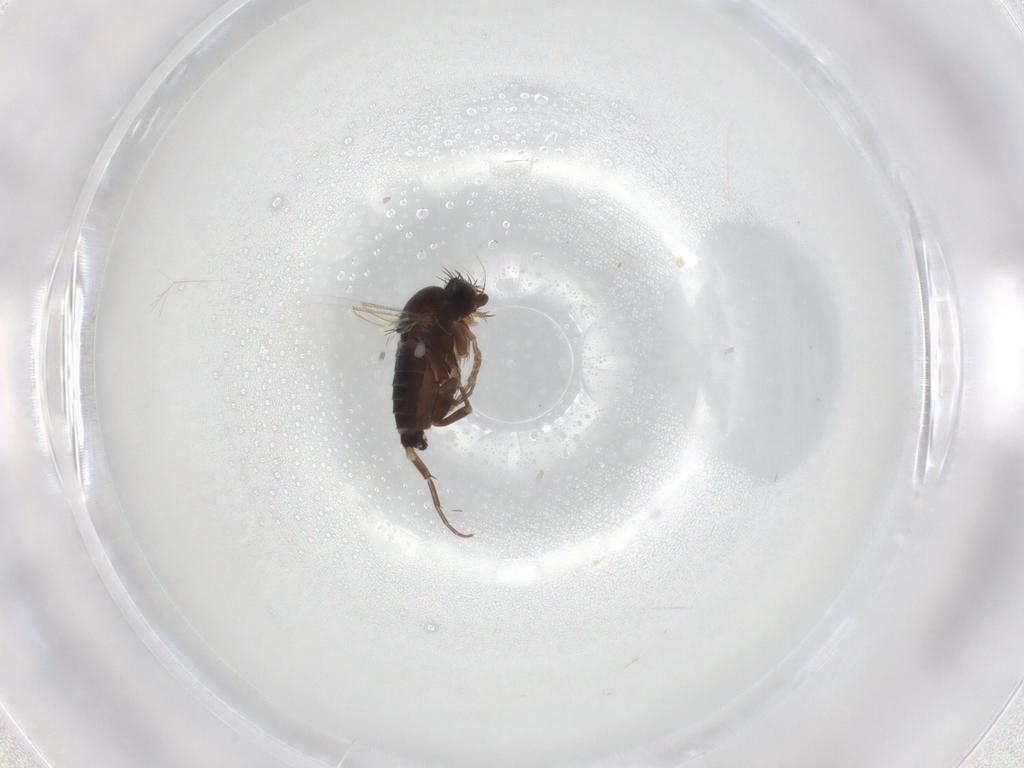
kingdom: Animalia
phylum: Arthropoda
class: Insecta
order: Diptera
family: Phoridae
